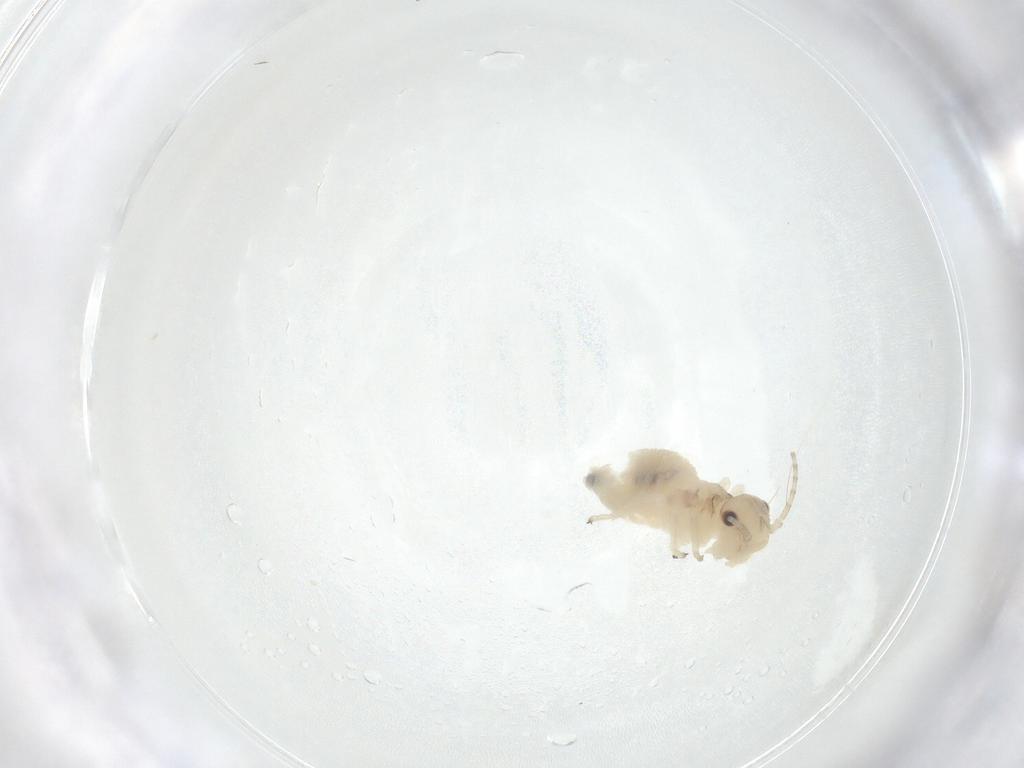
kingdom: Animalia
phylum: Arthropoda
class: Insecta
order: Psocodea
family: Amphipsocidae
